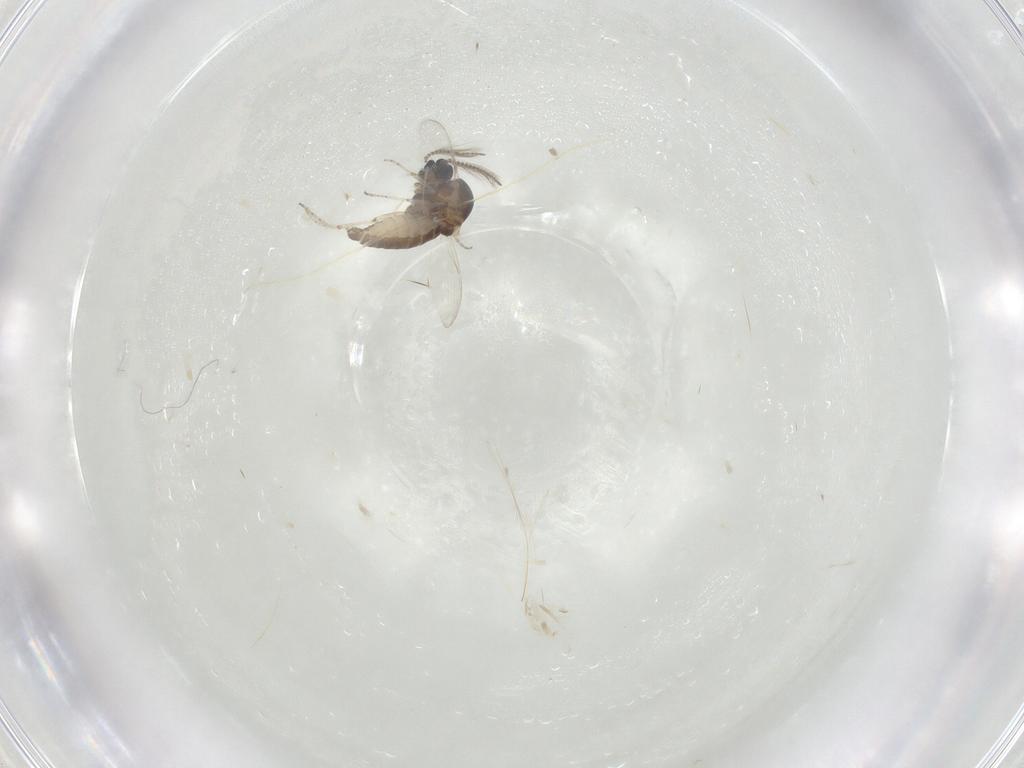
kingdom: Animalia
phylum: Arthropoda
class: Insecta
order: Diptera
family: Ceratopogonidae
